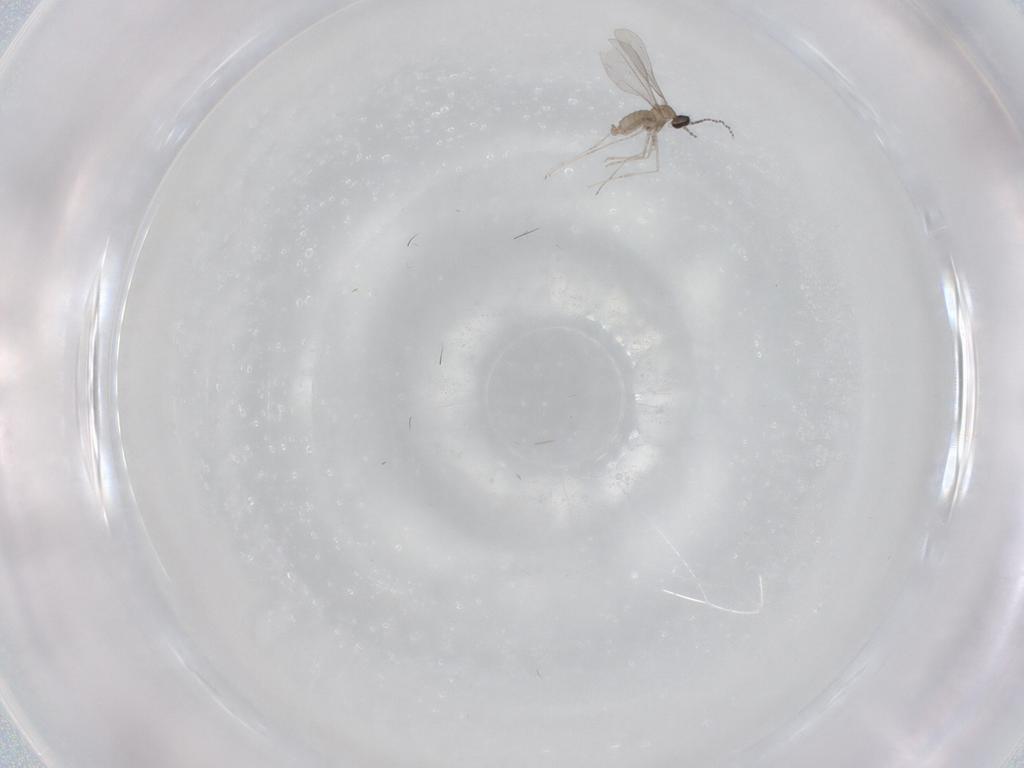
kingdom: Animalia
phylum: Arthropoda
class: Insecta
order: Diptera
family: Cecidomyiidae
